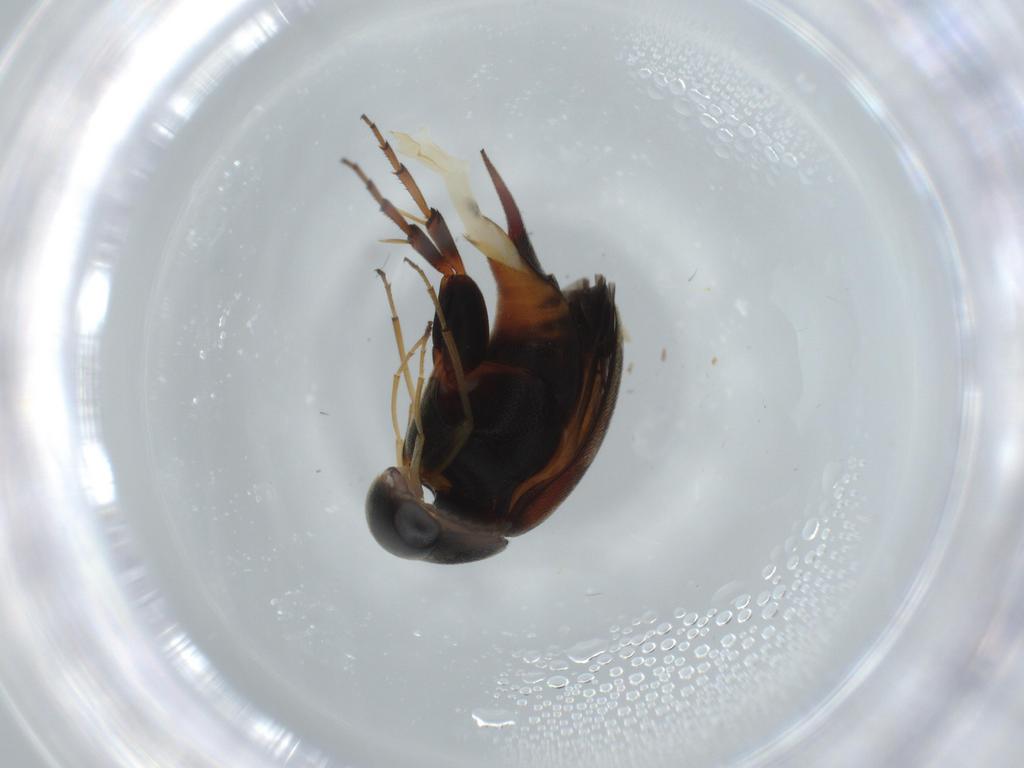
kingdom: Animalia
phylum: Arthropoda
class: Insecta
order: Coleoptera
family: Mordellidae
